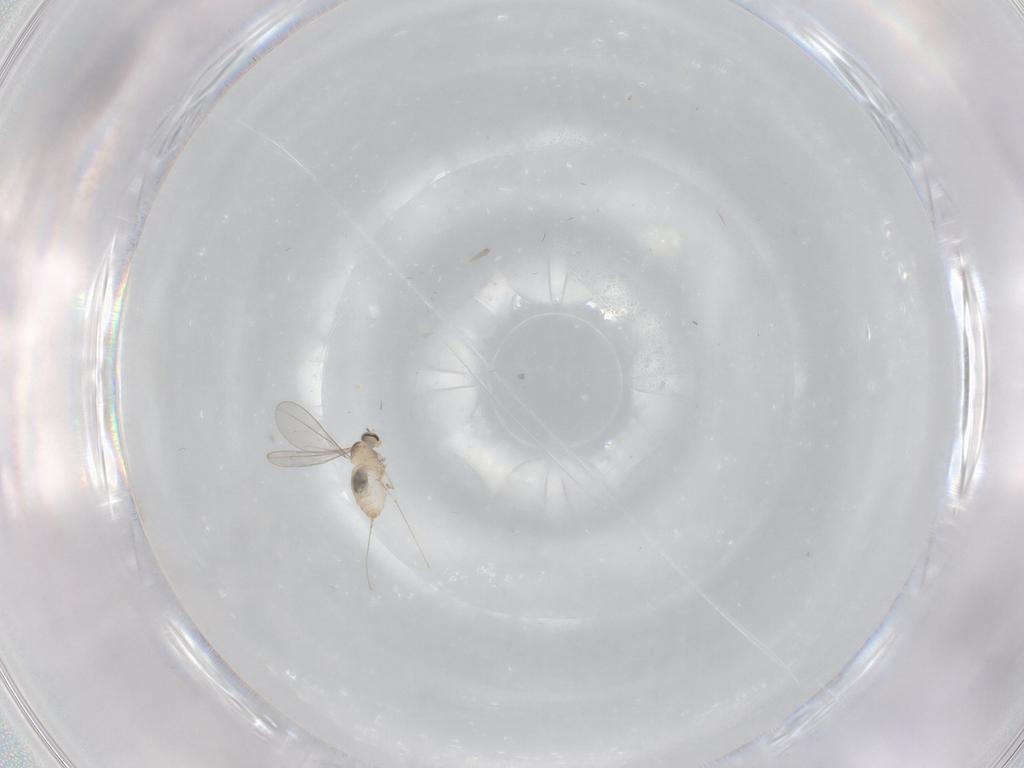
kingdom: Animalia
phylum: Arthropoda
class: Insecta
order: Diptera
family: Cecidomyiidae
